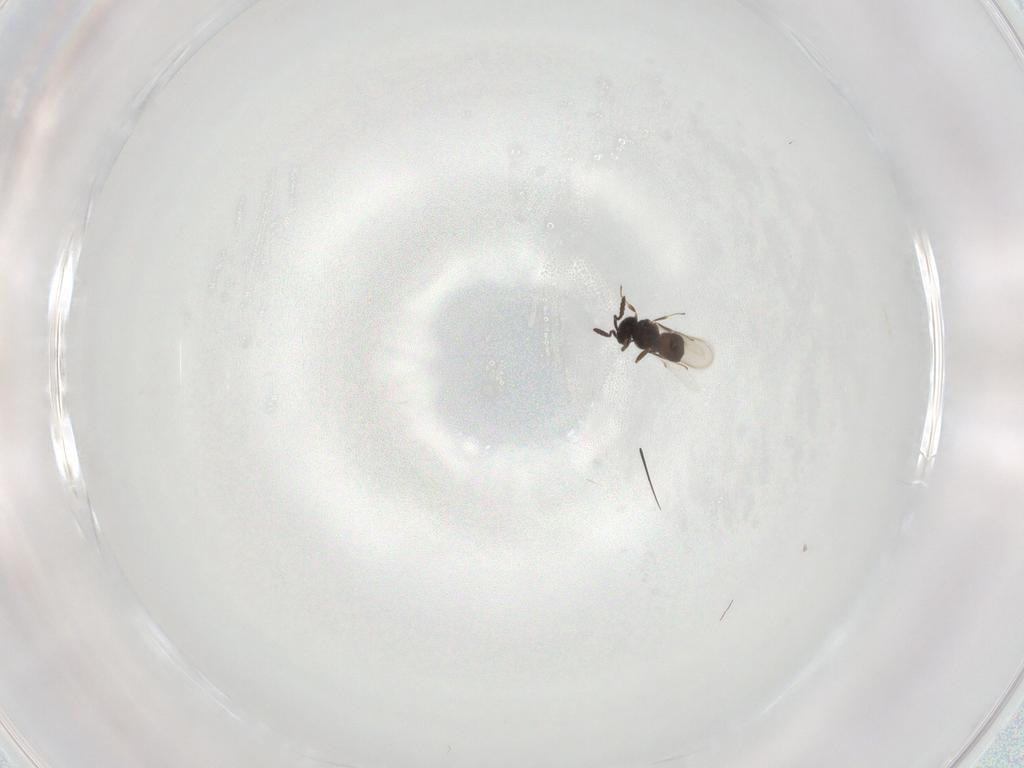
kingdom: Animalia
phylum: Arthropoda
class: Insecta
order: Hymenoptera
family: Scelionidae
